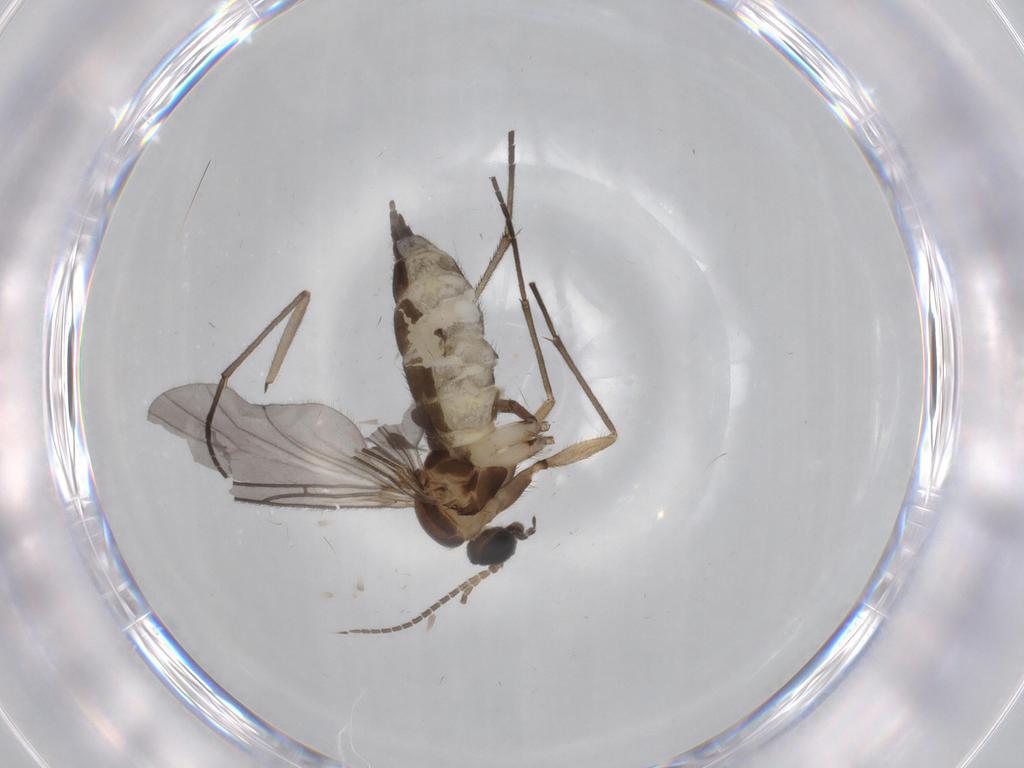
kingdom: Animalia
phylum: Arthropoda
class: Insecta
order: Diptera
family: Sciaridae
